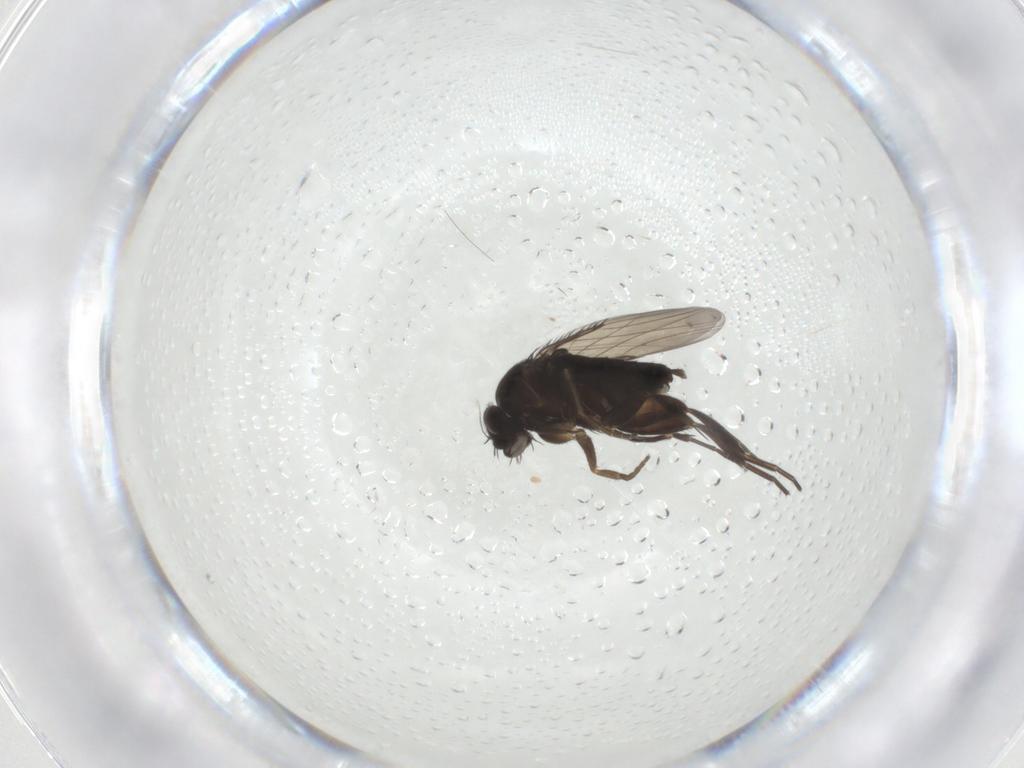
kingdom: Animalia
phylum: Arthropoda
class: Insecta
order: Diptera
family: Phoridae
